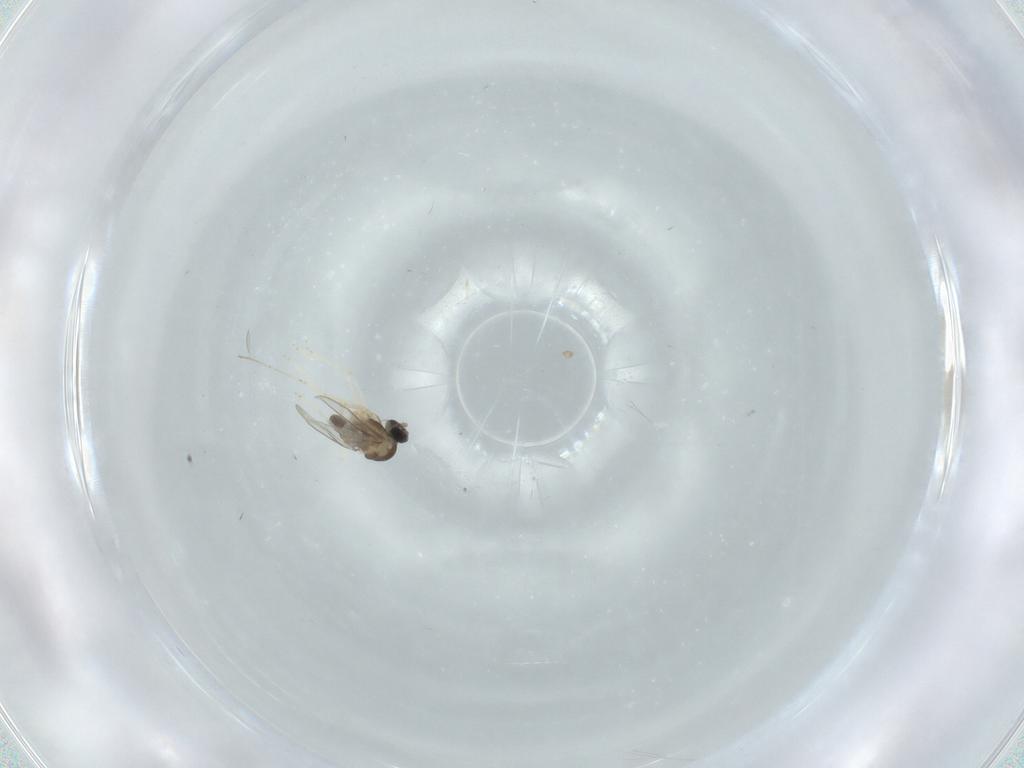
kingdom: Animalia
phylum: Arthropoda
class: Insecta
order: Diptera
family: Cecidomyiidae
